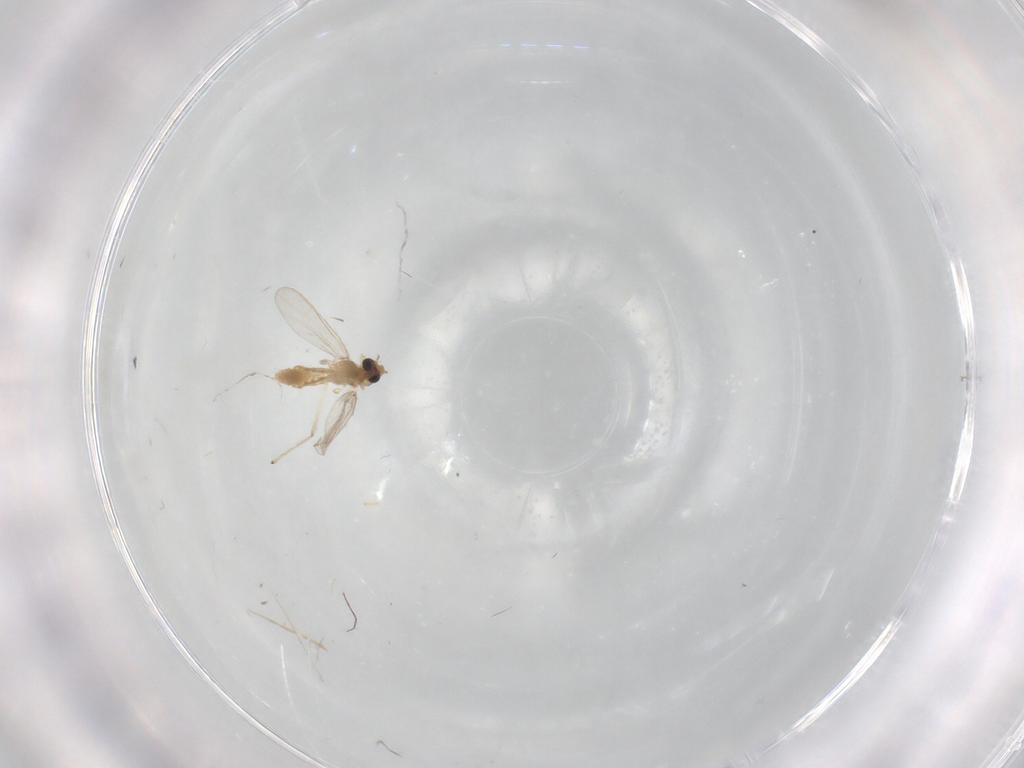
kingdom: Animalia
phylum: Arthropoda
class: Insecta
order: Diptera
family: Chironomidae
